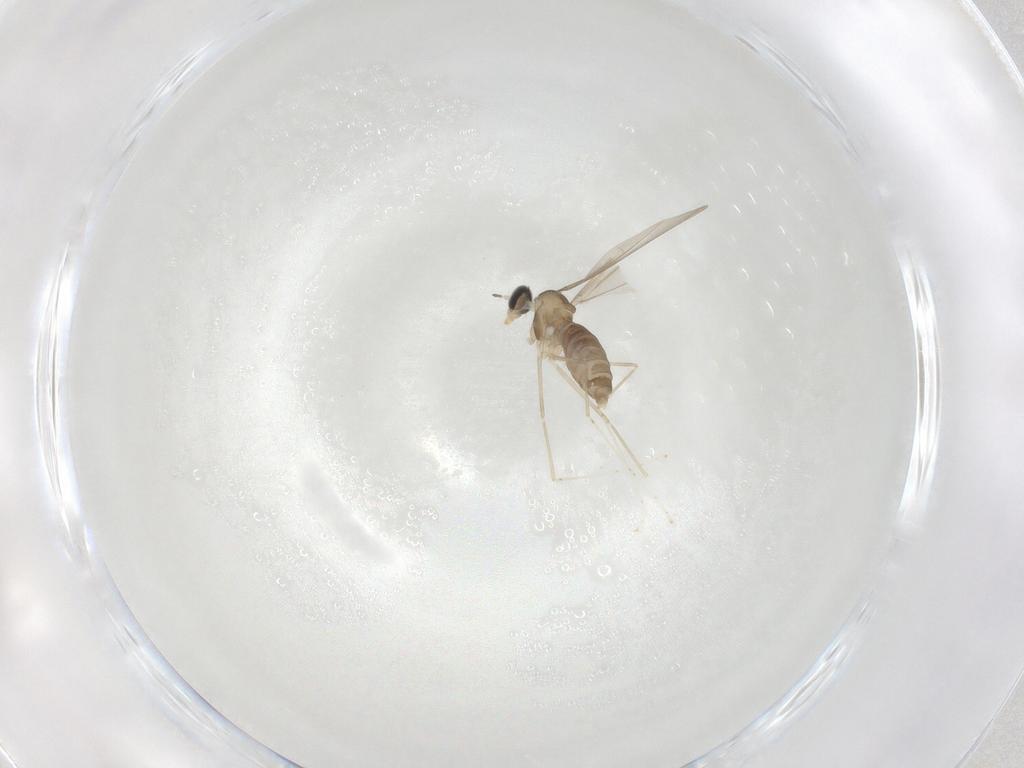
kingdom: Animalia
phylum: Arthropoda
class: Insecta
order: Diptera
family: Cecidomyiidae
